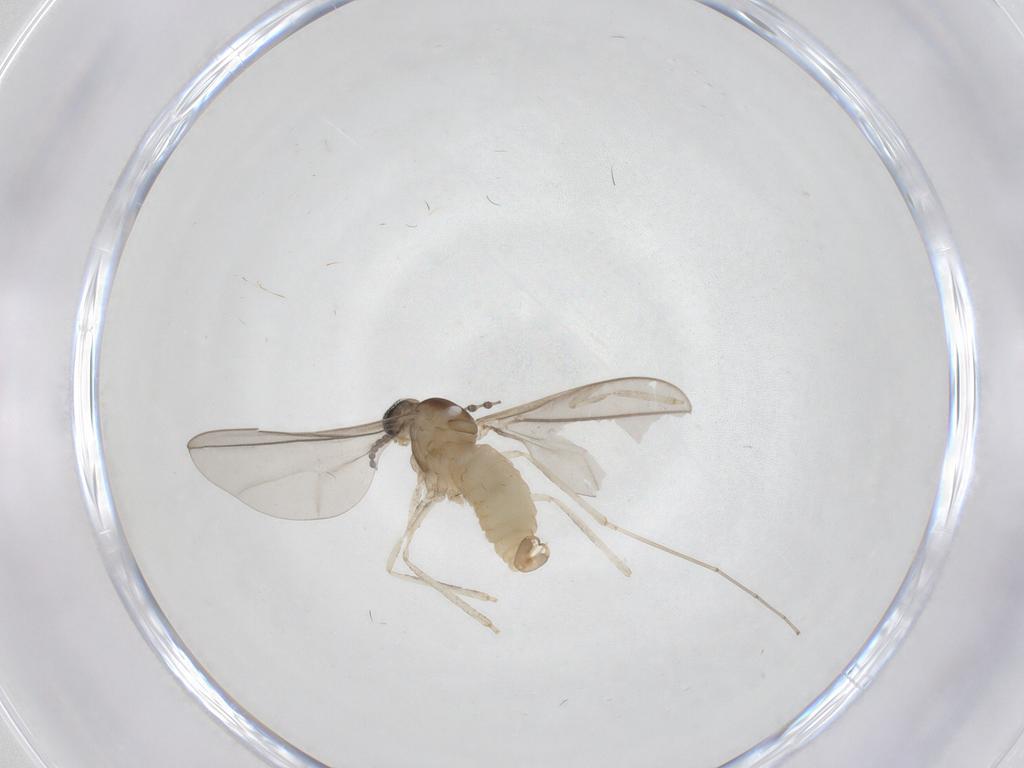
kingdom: Animalia
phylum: Arthropoda
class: Insecta
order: Diptera
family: Cecidomyiidae
